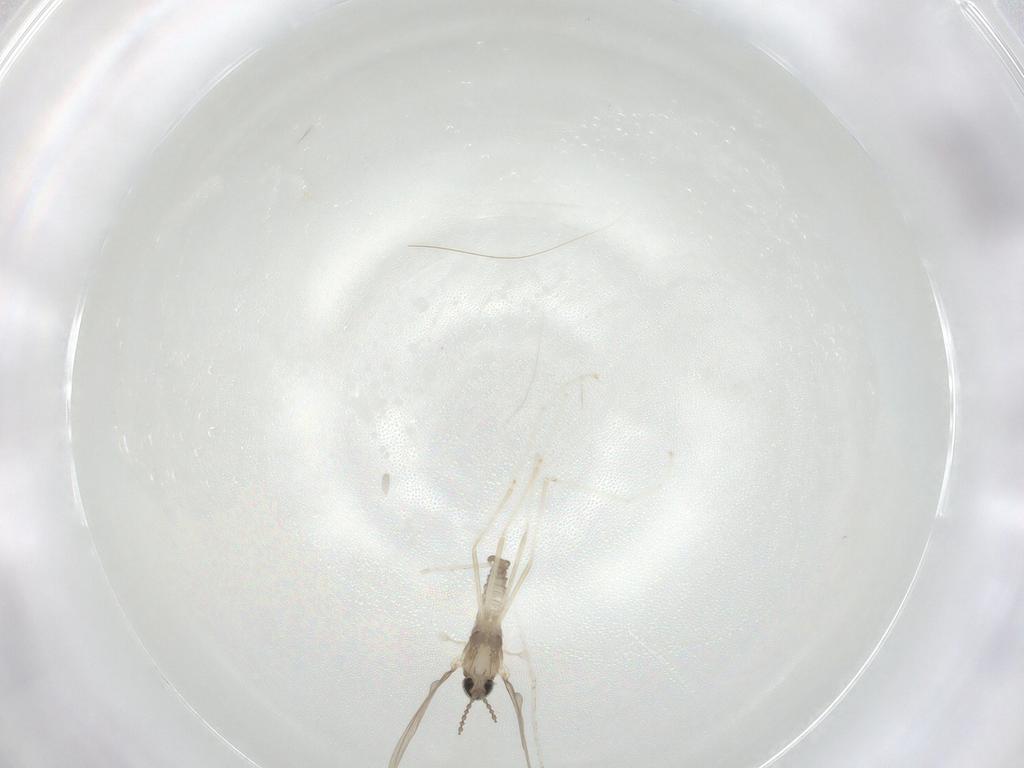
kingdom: Animalia
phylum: Arthropoda
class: Insecta
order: Diptera
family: Cecidomyiidae
